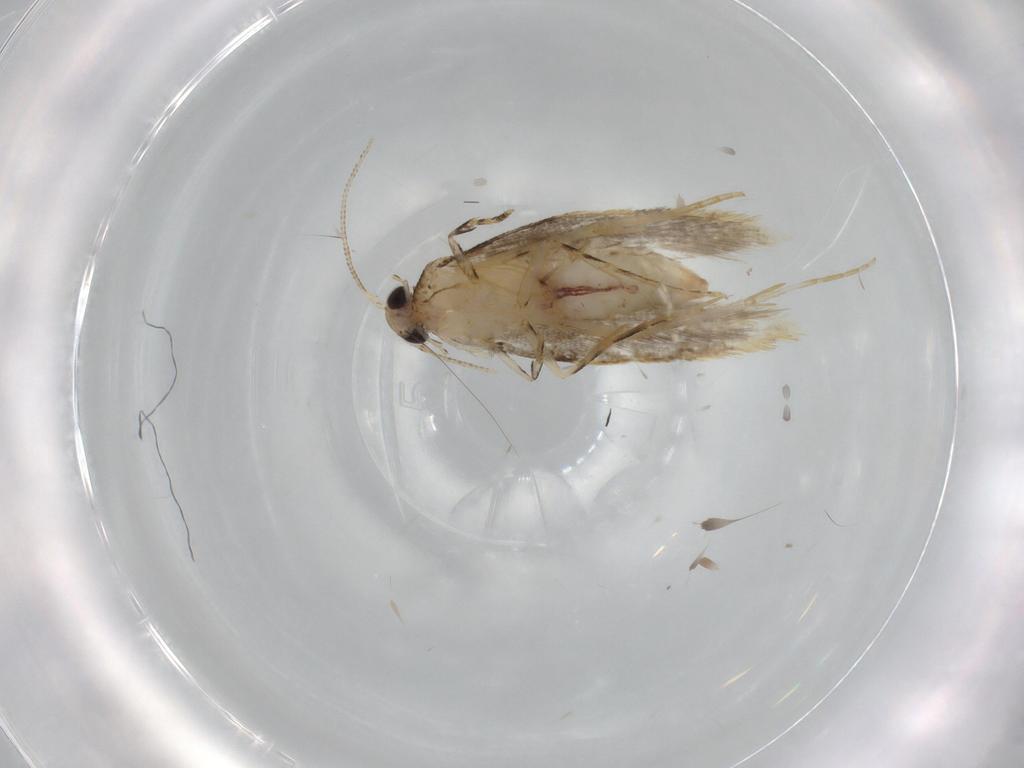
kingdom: Animalia
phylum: Arthropoda
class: Insecta
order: Lepidoptera
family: Tineidae
